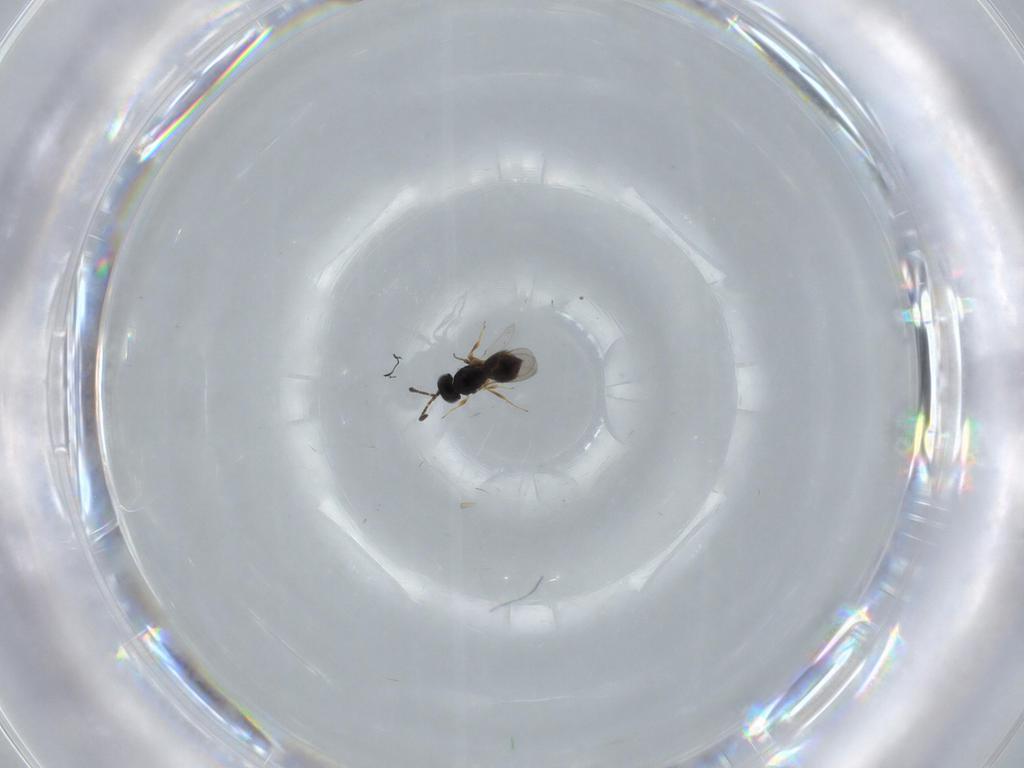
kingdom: Animalia
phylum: Arthropoda
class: Insecta
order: Hymenoptera
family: Scelionidae
